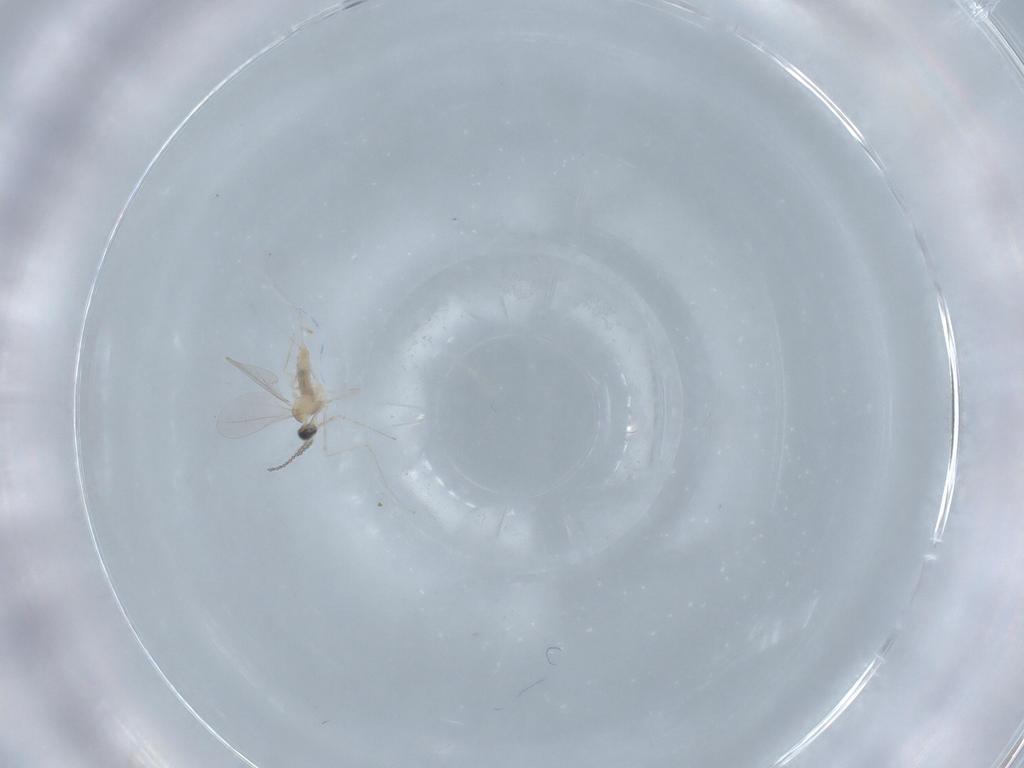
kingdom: Animalia
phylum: Arthropoda
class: Insecta
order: Diptera
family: Phoridae
